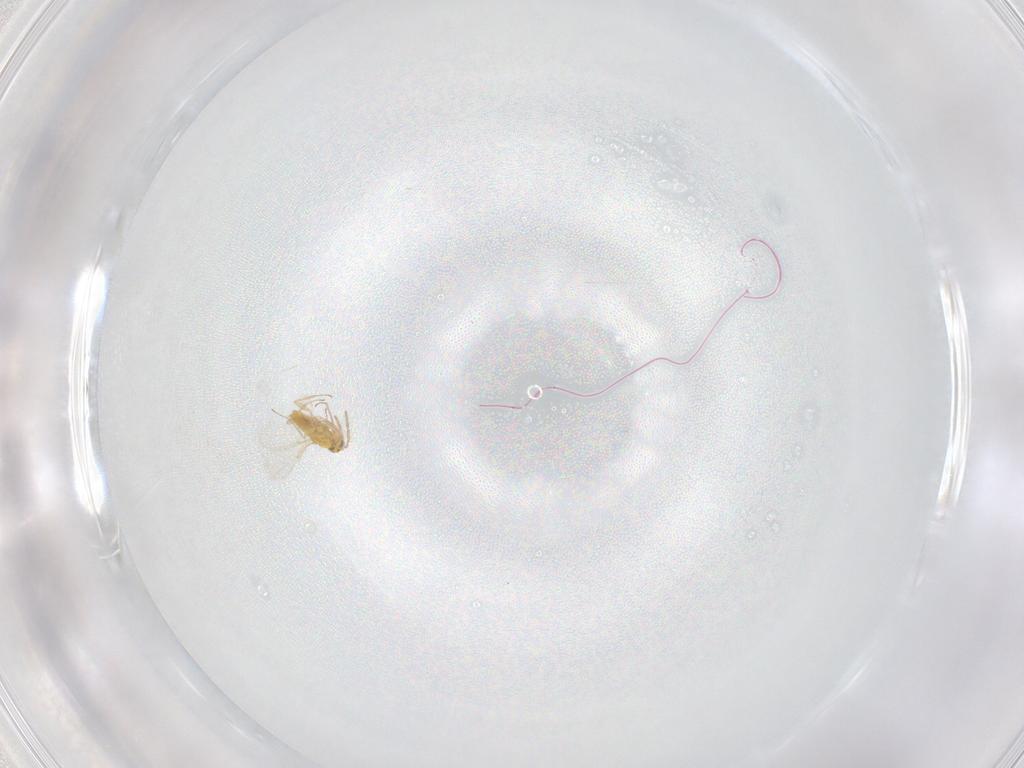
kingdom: Animalia
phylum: Arthropoda
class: Insecta
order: Hymenoptera
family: Aphelinidae
